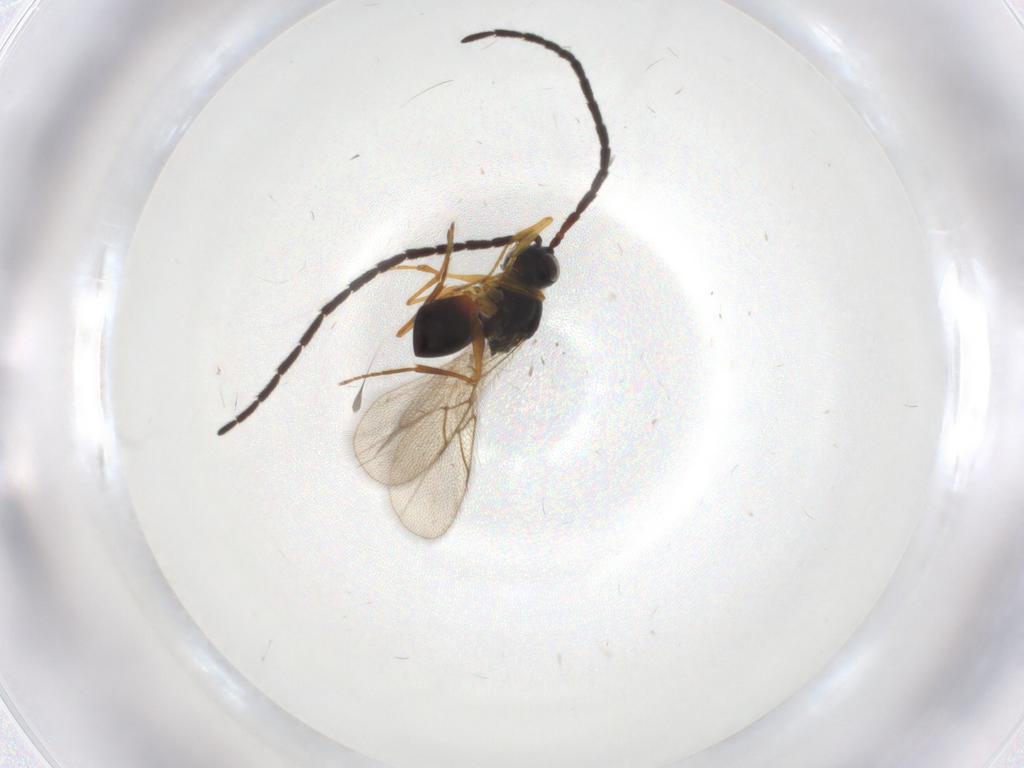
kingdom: Animalia
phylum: Arthropoda
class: Insecta
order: Hymenoptera
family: Figitidae
